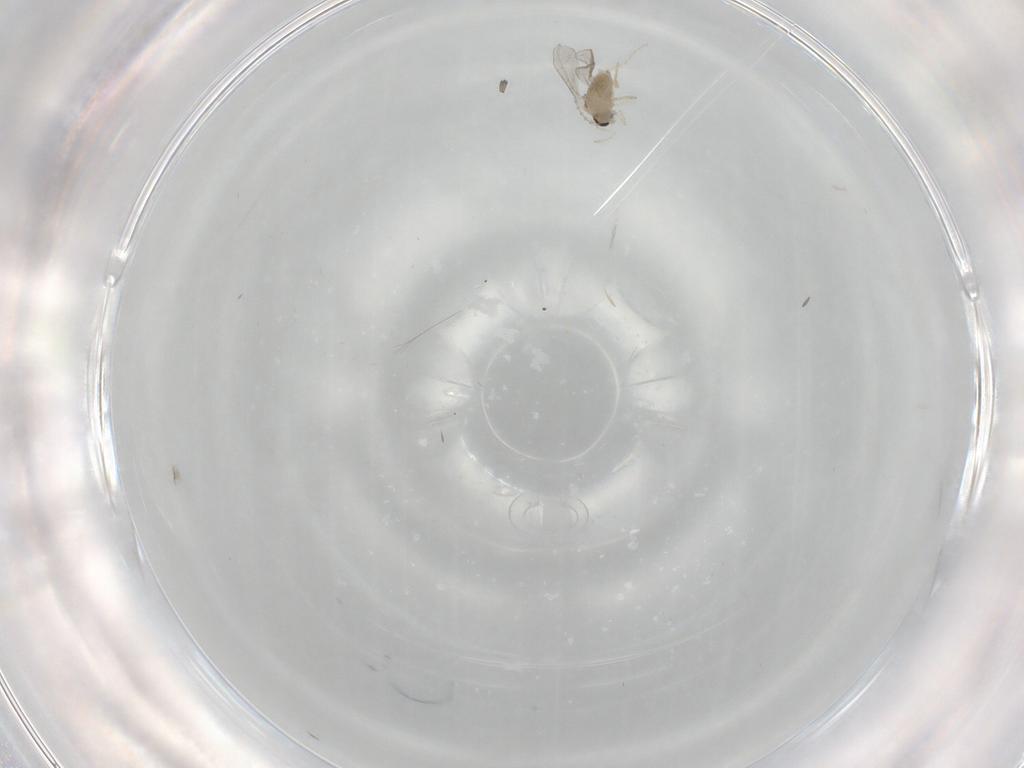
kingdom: Animalia
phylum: Arthropoda
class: Insecta
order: Diptera
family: Cecidomyiidae
